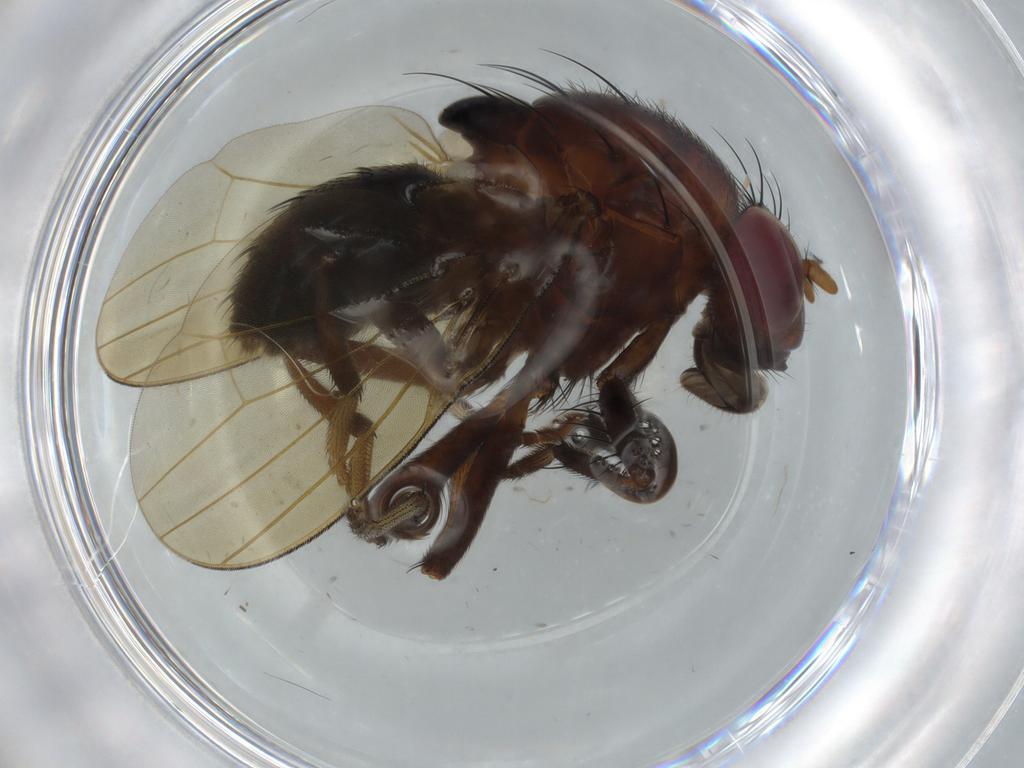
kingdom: Animalia
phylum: Arthropoda
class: Insecta
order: Diptera
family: Lauxaniidae
